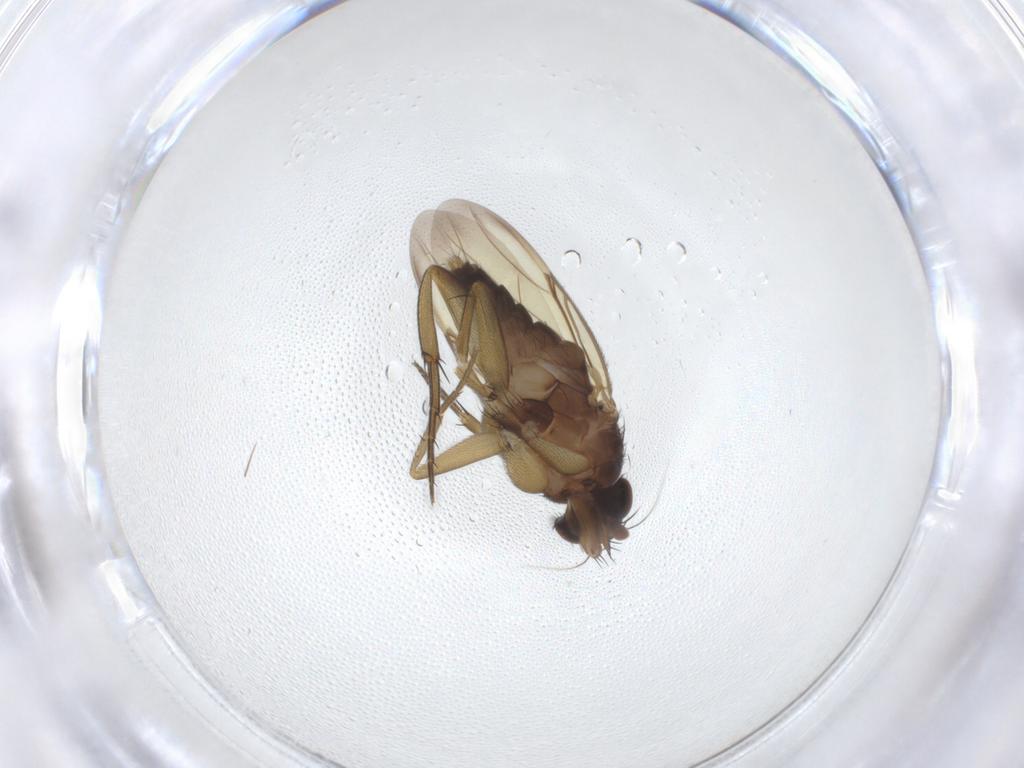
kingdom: Animalia
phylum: Arthropoda
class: Insecta
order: Diptera
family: Phoridae
